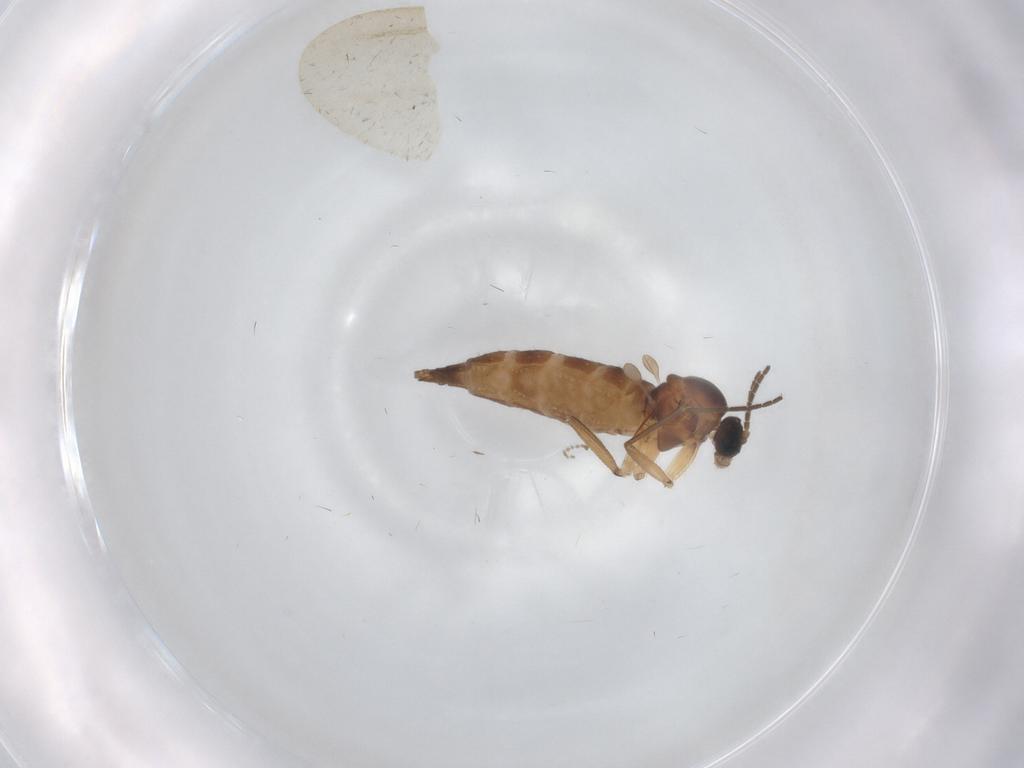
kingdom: Animalia
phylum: Arthropoda
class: Insecta
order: Diptera
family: Sciaridae
